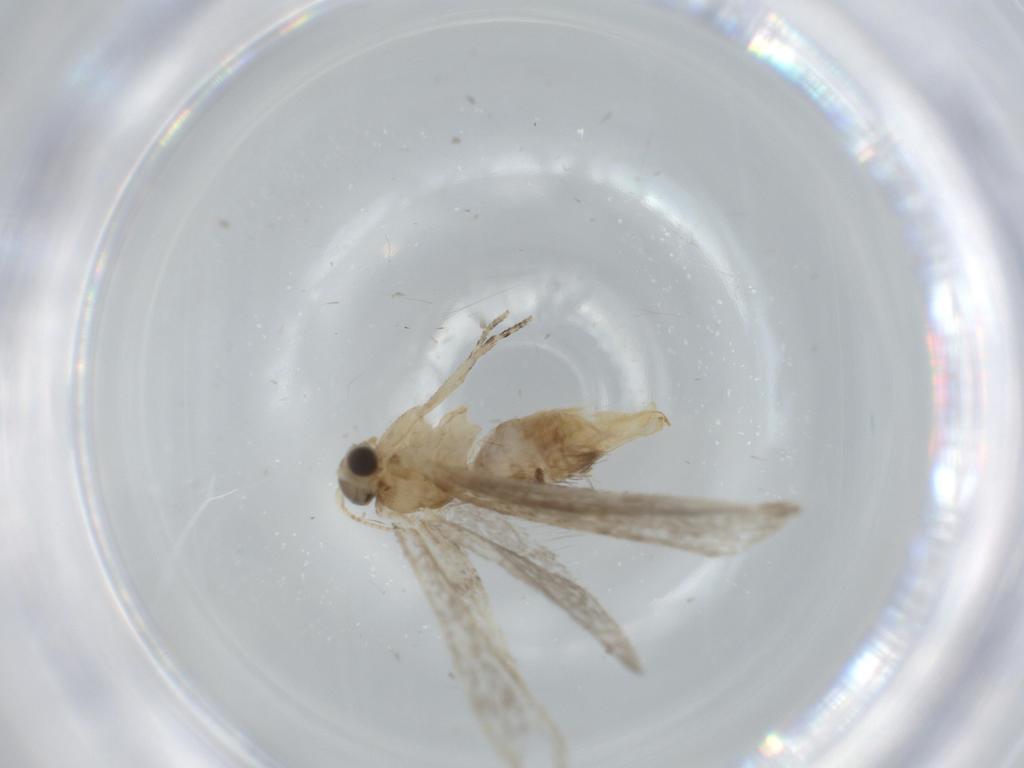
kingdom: Animalia
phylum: Arthropoda
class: Insecta
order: Lepidoptera
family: Tineidae
